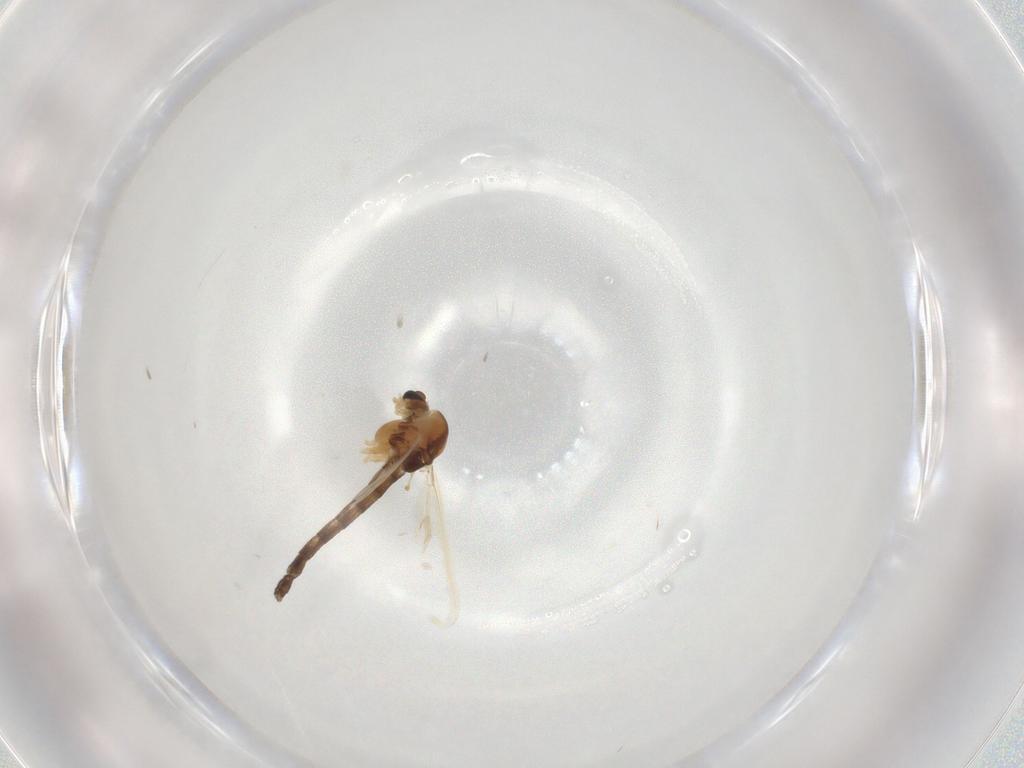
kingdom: Animalia
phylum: Arthropoda
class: Insecta
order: Diptera
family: Chironomidae
